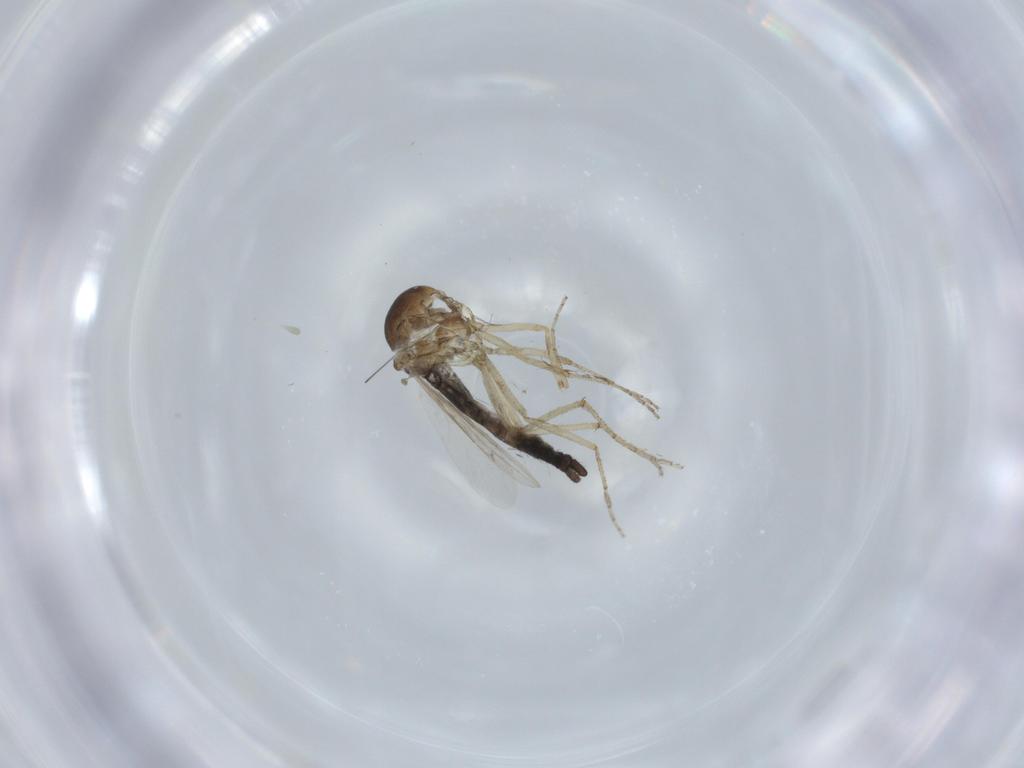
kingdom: Animalia
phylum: Arthropoda
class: Insecta
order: Diptera
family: Ceratopogonidae
